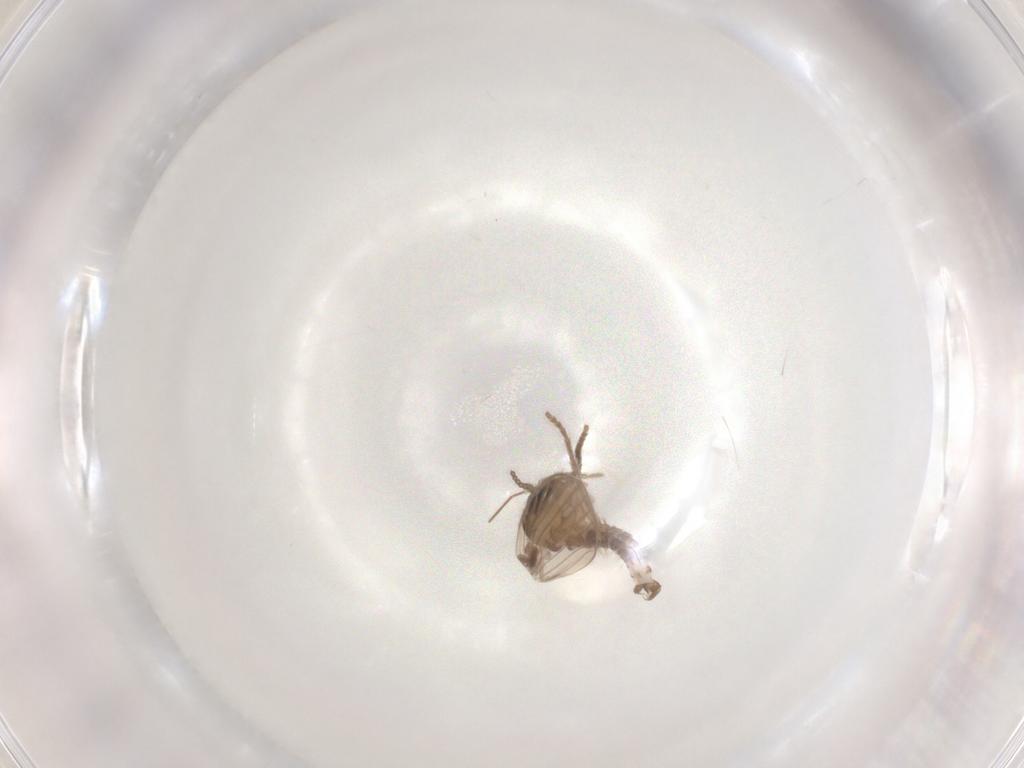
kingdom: Animalia
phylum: Arthropoda
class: Insecta
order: Diptera
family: Psychodidae
